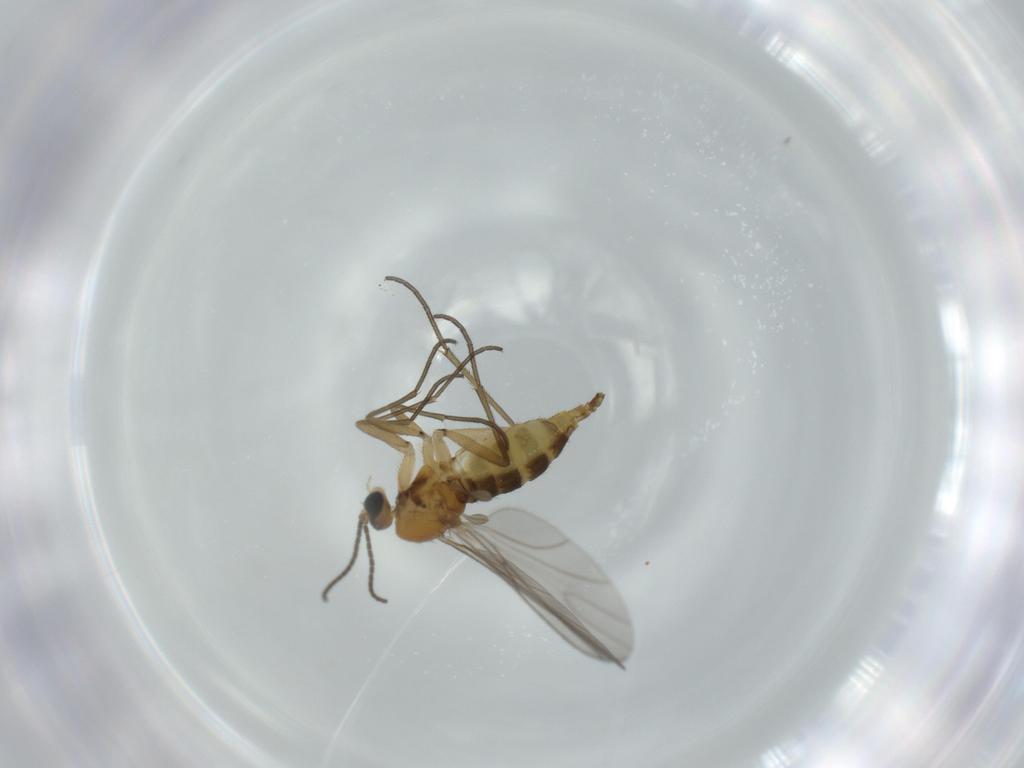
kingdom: Animalia
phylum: Arthropoda
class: Insecta
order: Diptera
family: Sciaridae
